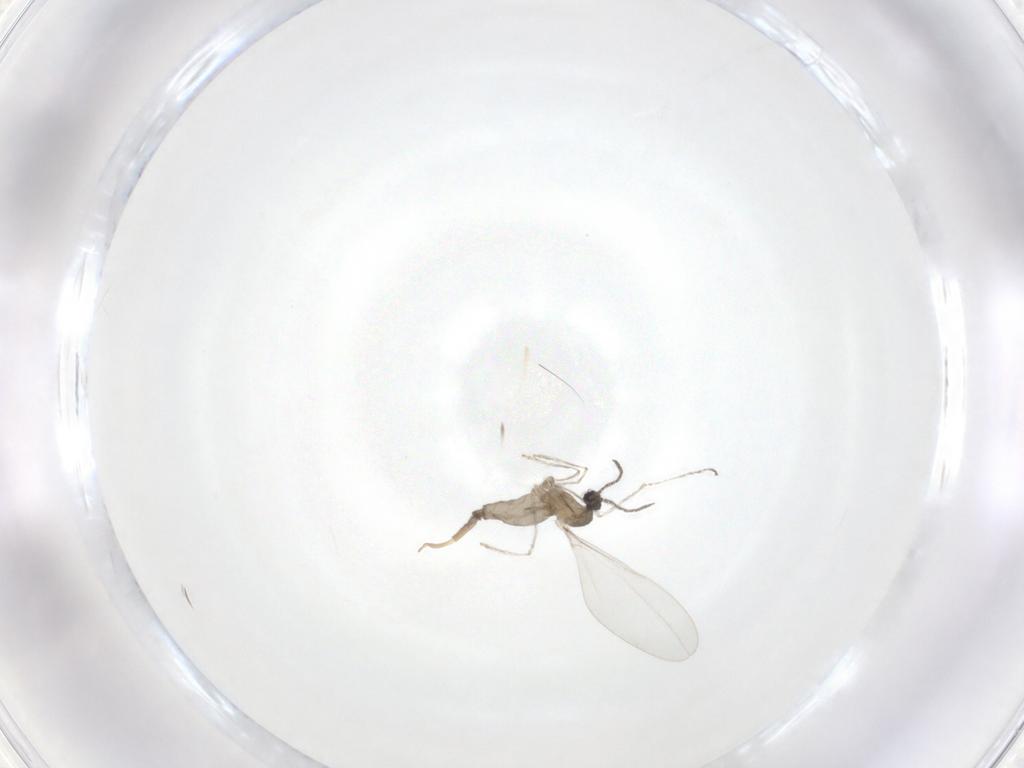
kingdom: Animalia
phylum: Arthropoda
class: Insecta
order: Diptera
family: Cecidomyiidae
